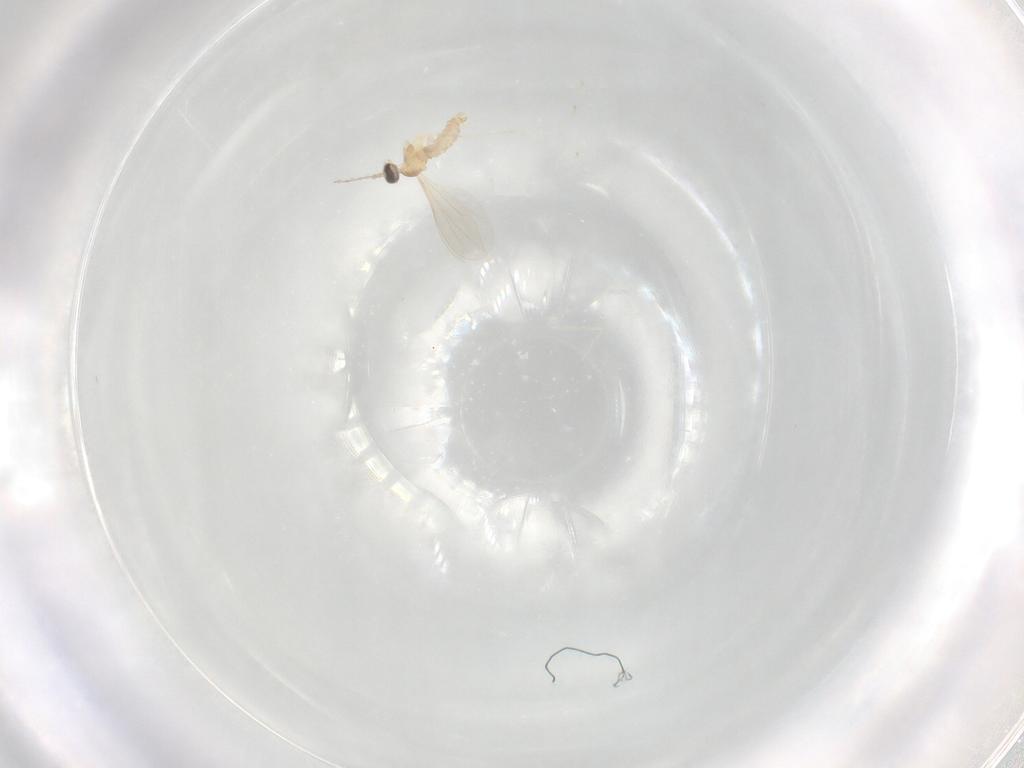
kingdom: Animalia
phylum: Arthropoda
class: Insecta
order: Diptera
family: Cecidomyiidae
